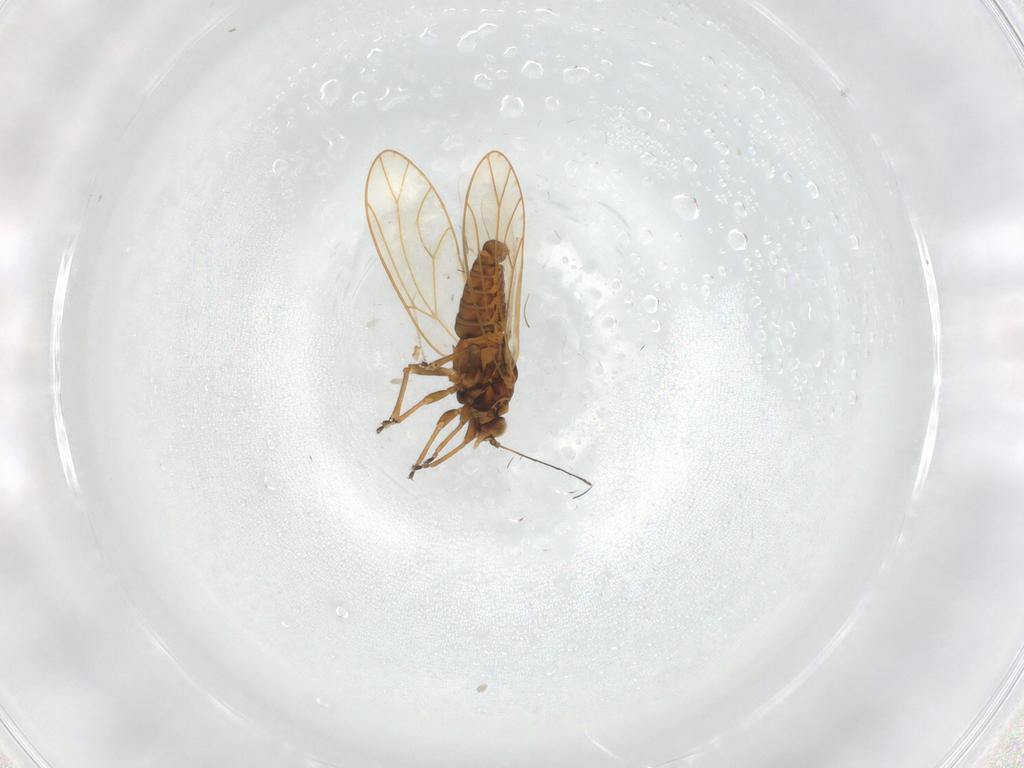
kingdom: Animalia
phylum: Arthropoda
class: Insecta
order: Hemiptera
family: Triozidae
